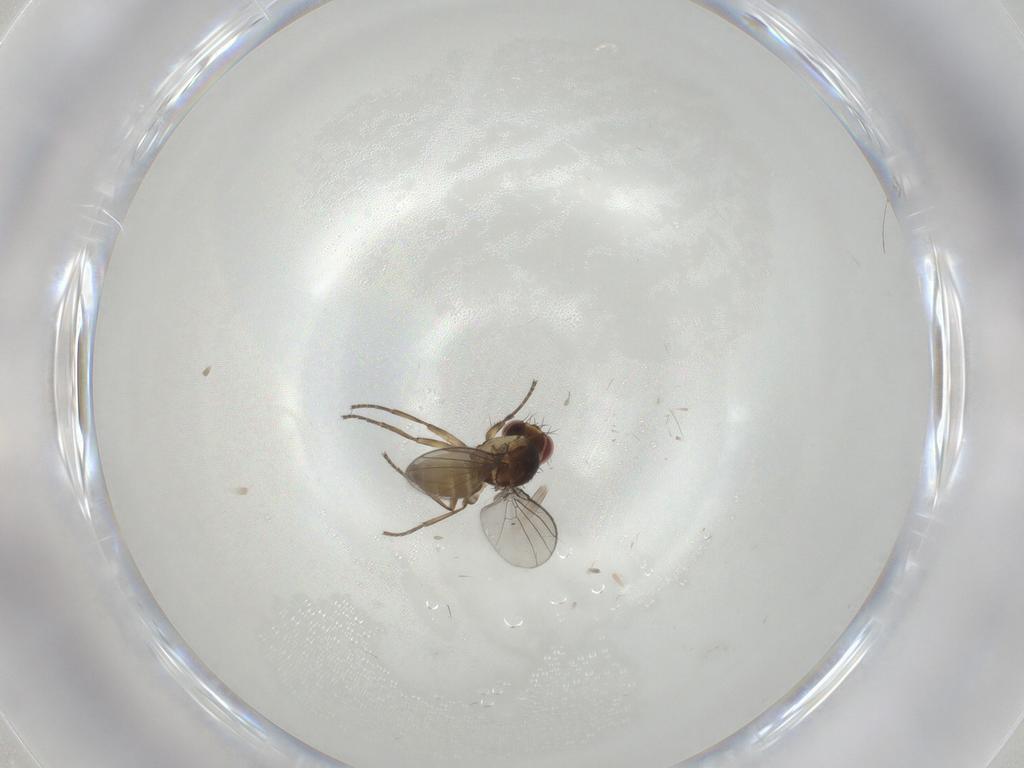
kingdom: Animalia
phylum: Arthropoda
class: Insecta
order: Diptera
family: Agromyzidae
